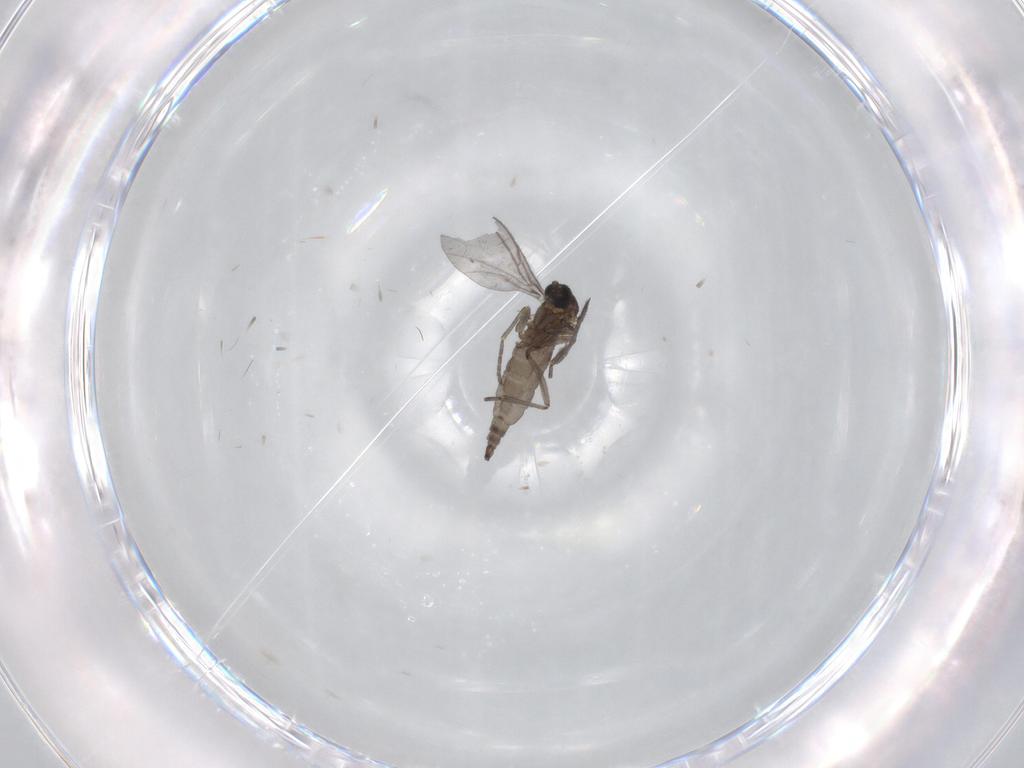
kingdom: Animalia
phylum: Arthropoda
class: Insecta
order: Diptera
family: Sciaridae
